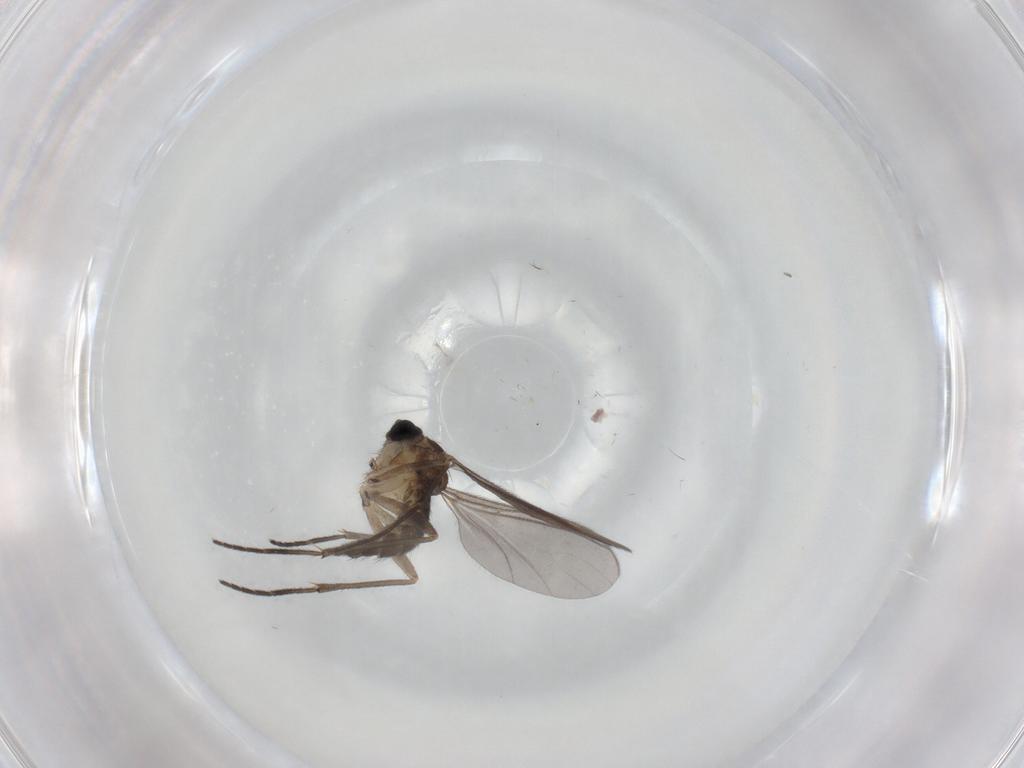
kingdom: Animalia
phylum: Arthropoda
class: Insecta
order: Diptera
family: Sciaridae
